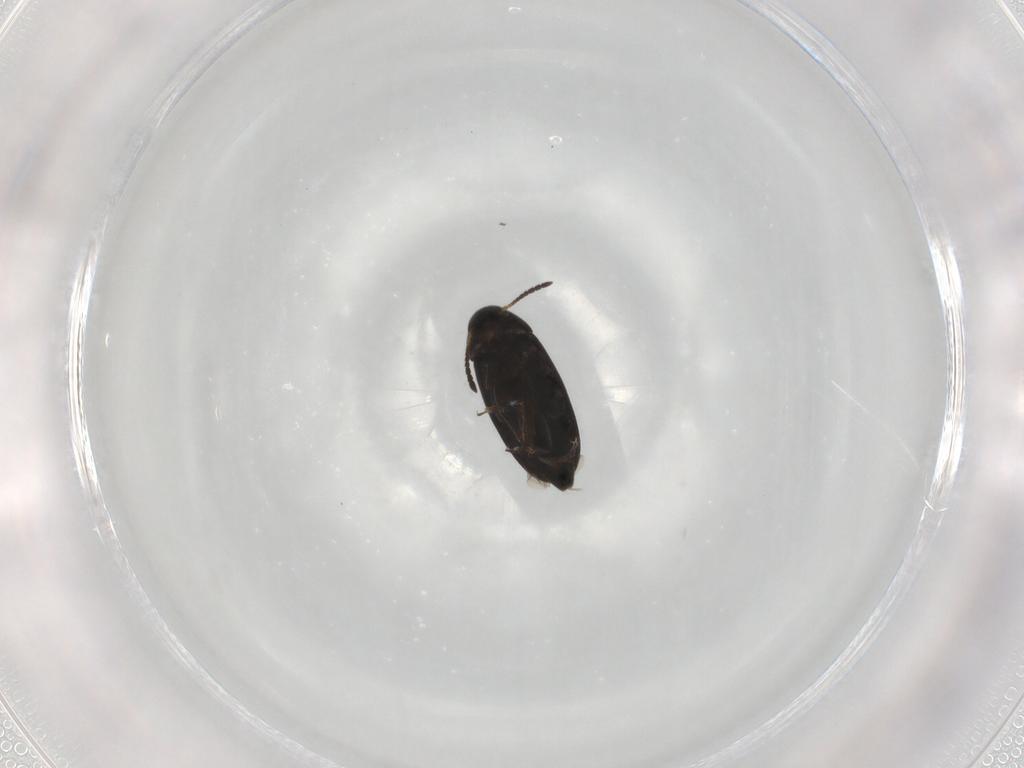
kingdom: Animalia
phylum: Arthropoda
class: Insecta
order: Coleoptera
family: Scraptiidae
